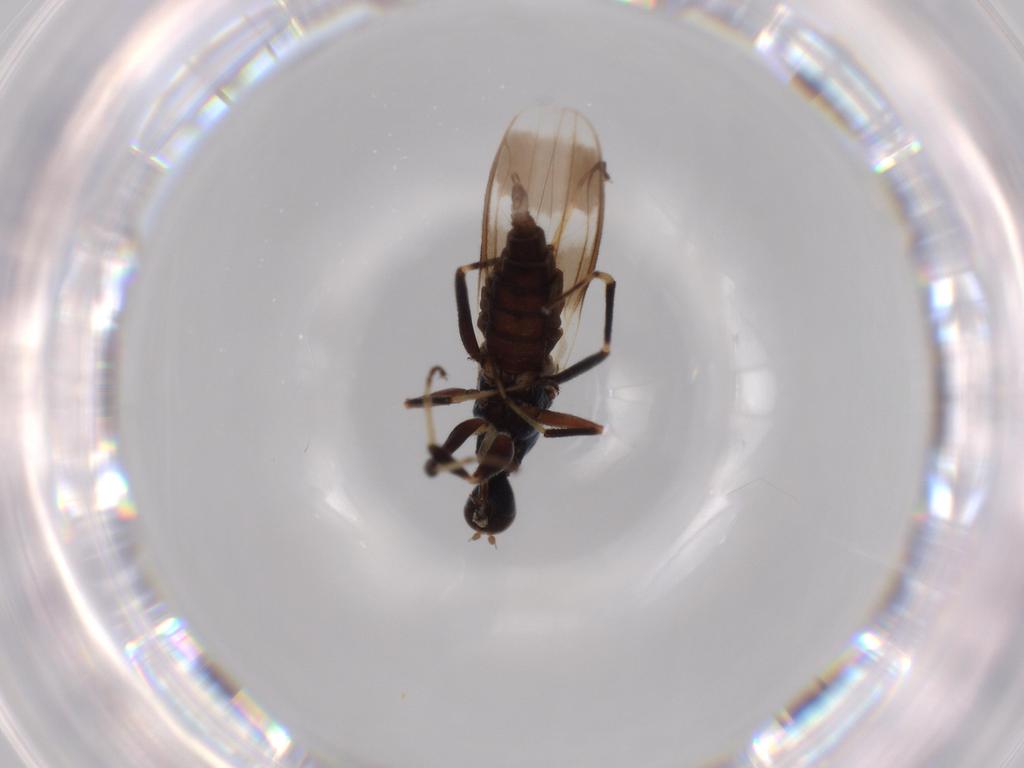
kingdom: Animalia
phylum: Arthropoda
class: Insecta
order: Diptera
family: Hybotidae
